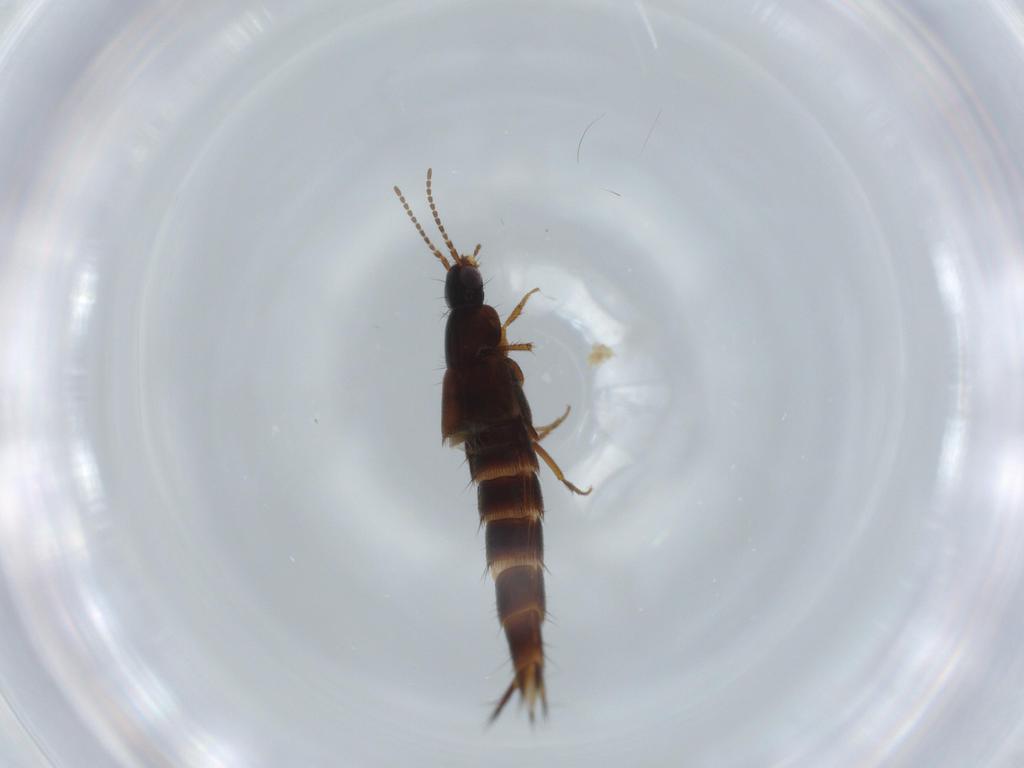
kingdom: Animalia
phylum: Arthropoda
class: Insecta
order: Coleoptera
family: Staphylinidae
